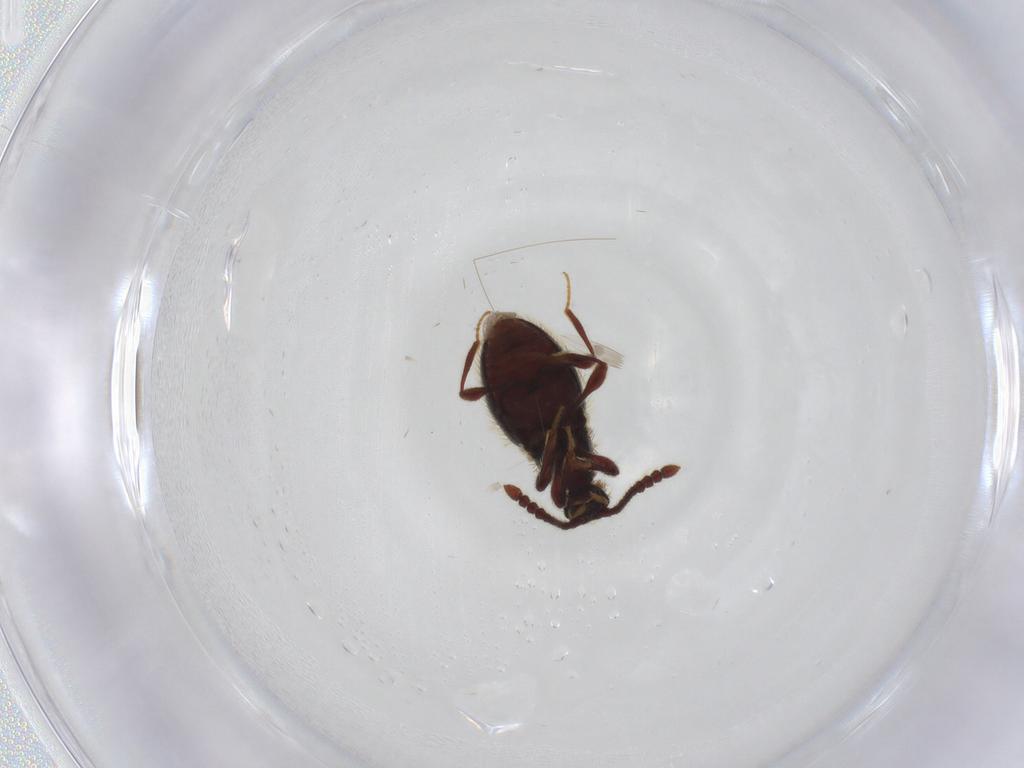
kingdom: Animalia
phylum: Arthropoda
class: Insecta
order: Coleoptera
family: Staphylinidae
